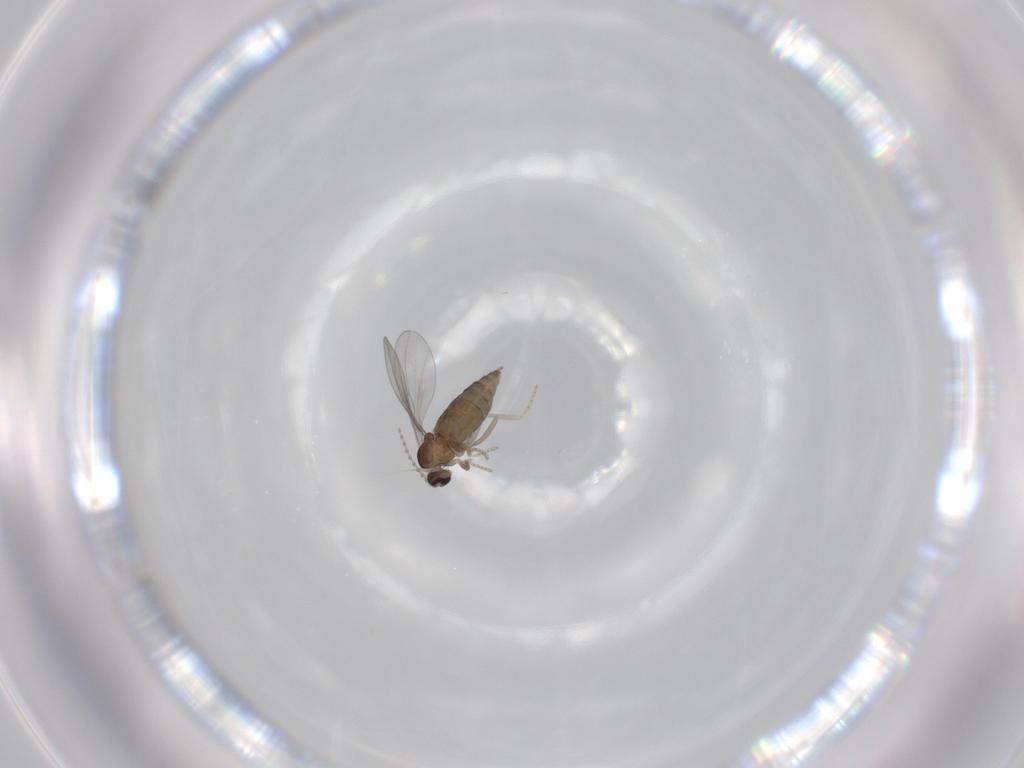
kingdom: Animalia
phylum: Arthropoda
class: Insecta
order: Diptera
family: Cecidomyiidae
